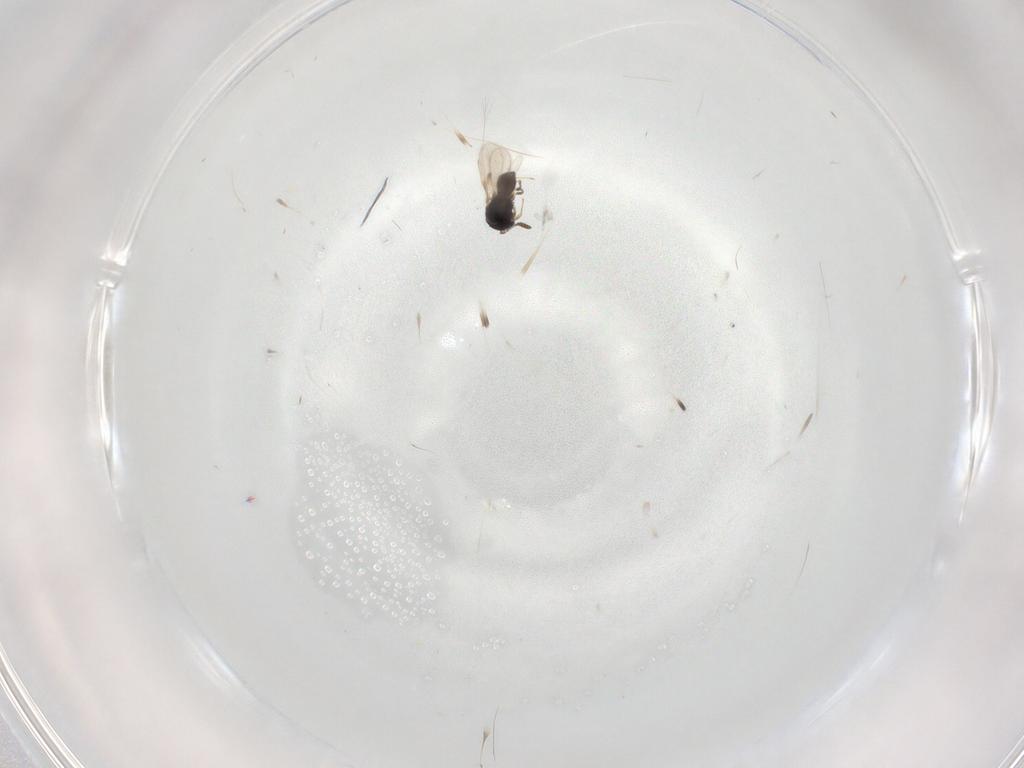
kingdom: Animalia
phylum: Arthropoda
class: Insecta
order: Hymenoptera
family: Scelionidae
